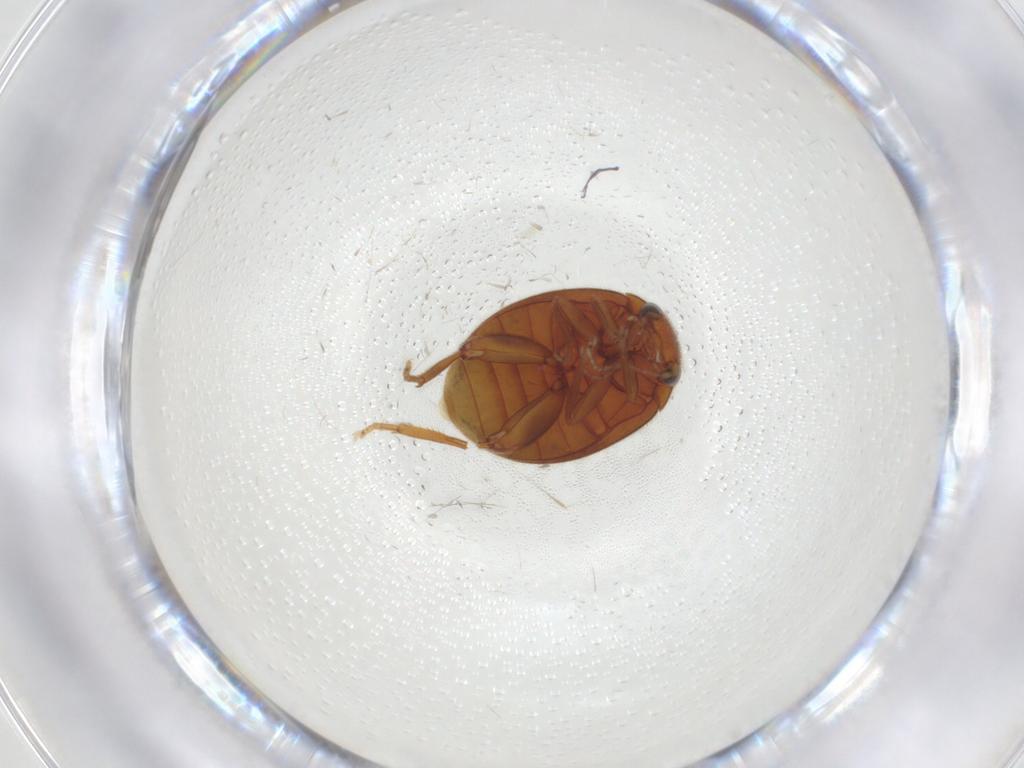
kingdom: Animalia
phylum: Arthropoda
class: Insecta
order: Coleoptera
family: Scirtidae
